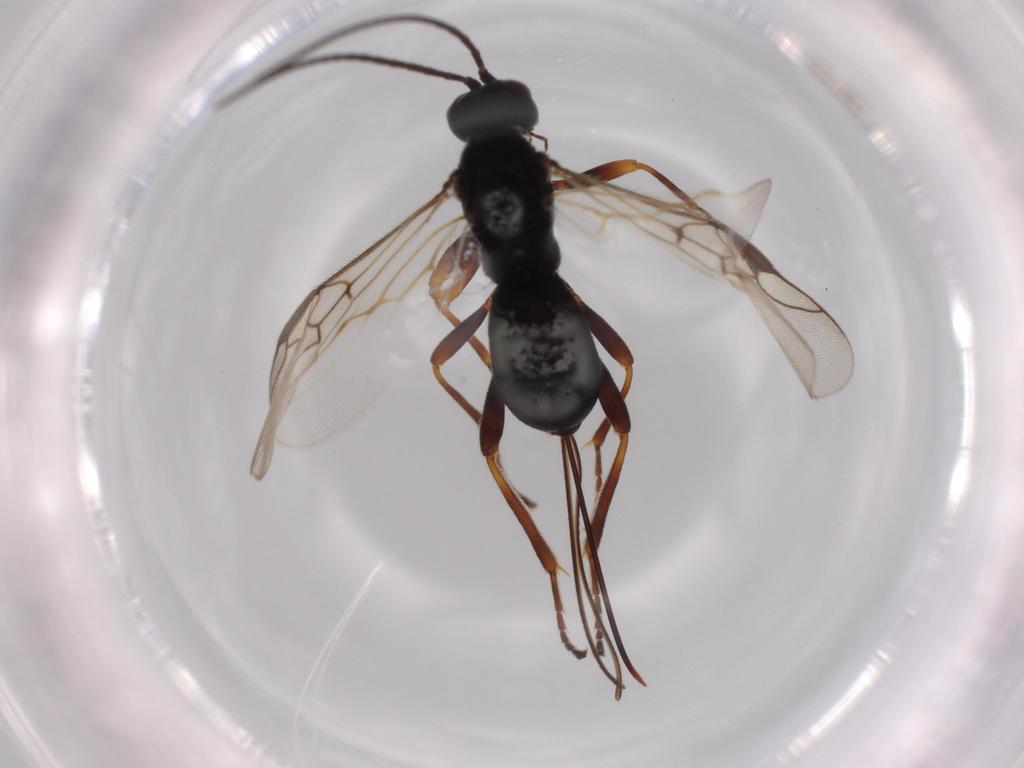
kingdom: Animalia
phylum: Arthropoda
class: Insecta
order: Hymenoptera
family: Braconidae
